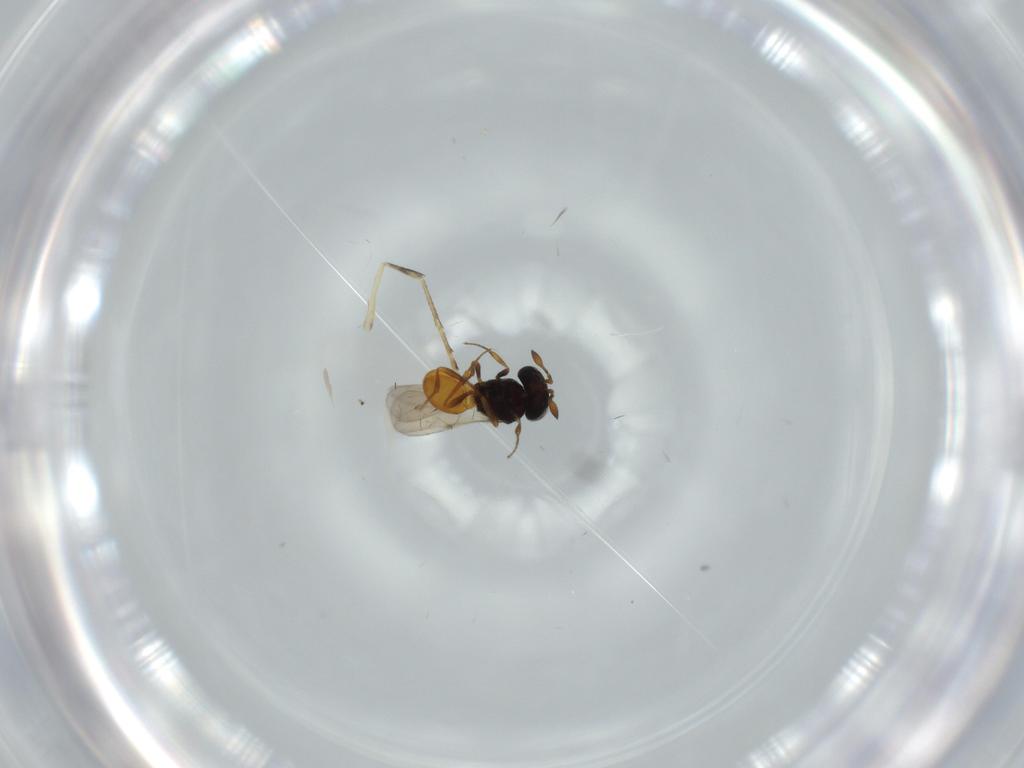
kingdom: Animalia
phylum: Arthropoda
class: Insecta
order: Hymenoptera
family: Scelionidae
